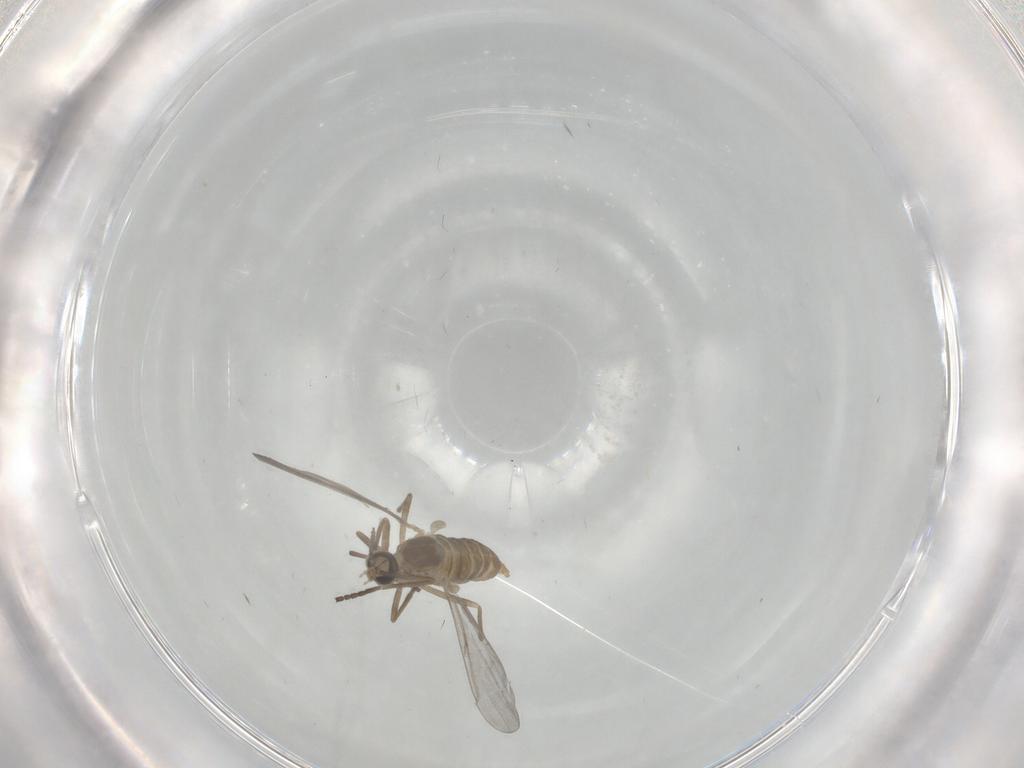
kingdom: Animalia
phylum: Arthropoda
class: Insecta
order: Diptera
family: Cecidomyiidae
